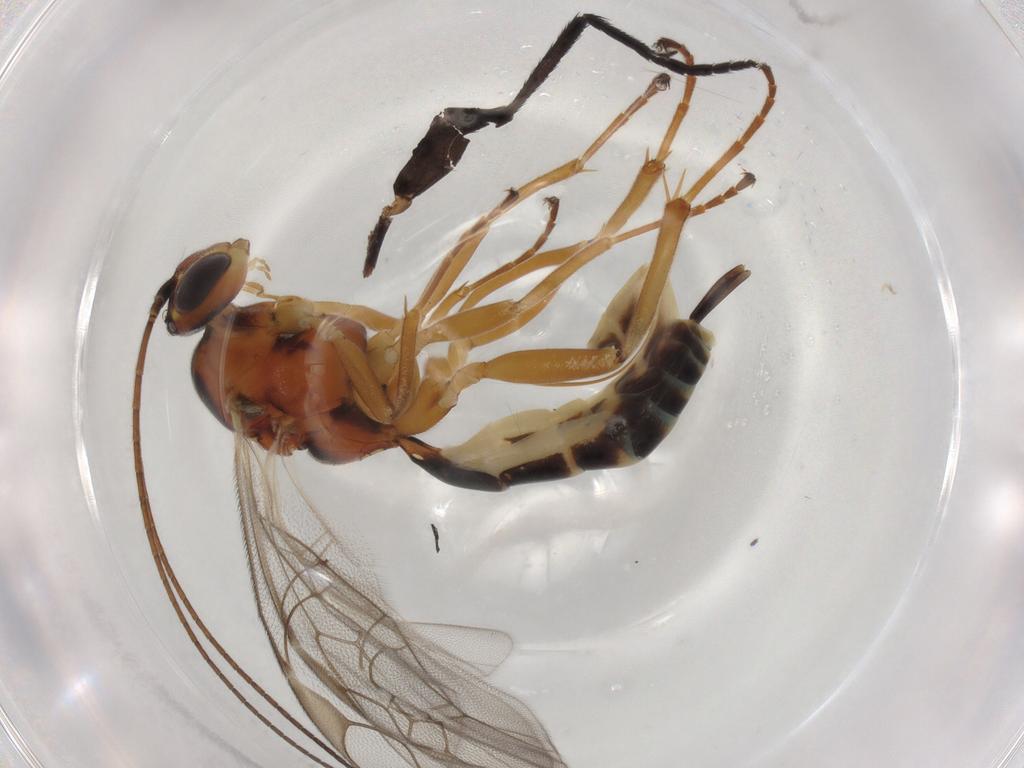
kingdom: Animalia
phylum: Arthropoda
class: Insecta
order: Hymenoptera
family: Ichneumonidae
